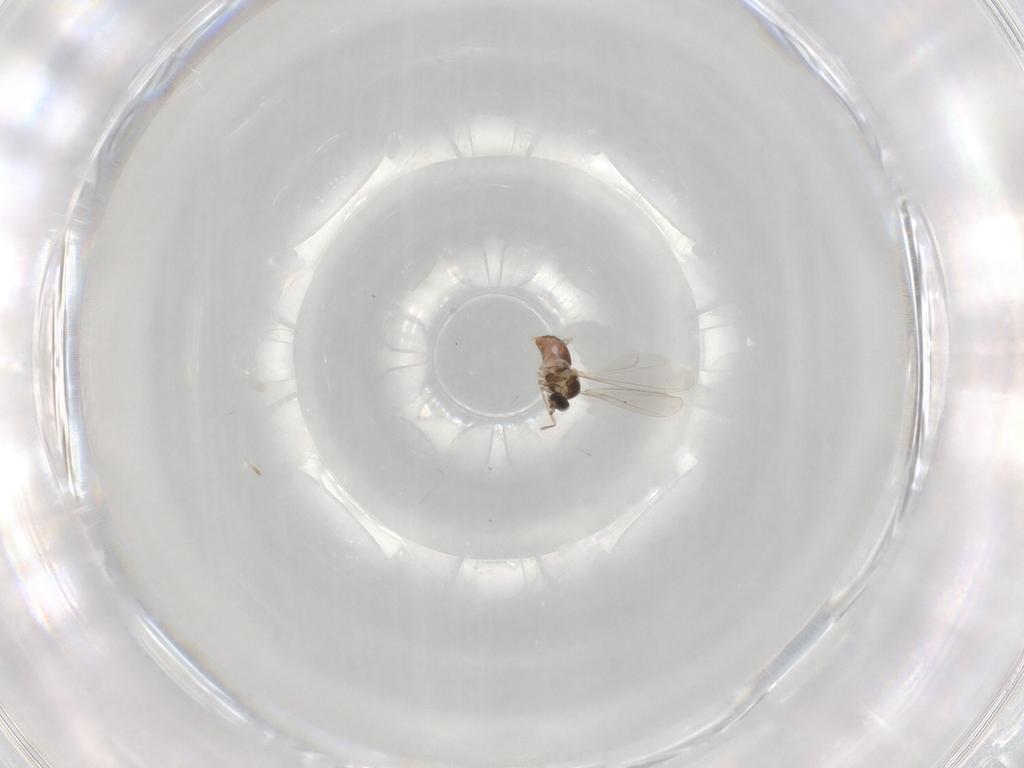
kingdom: Animalia
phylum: Arthropoda
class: Insecta
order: Diptera
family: Cecidomyiidae
